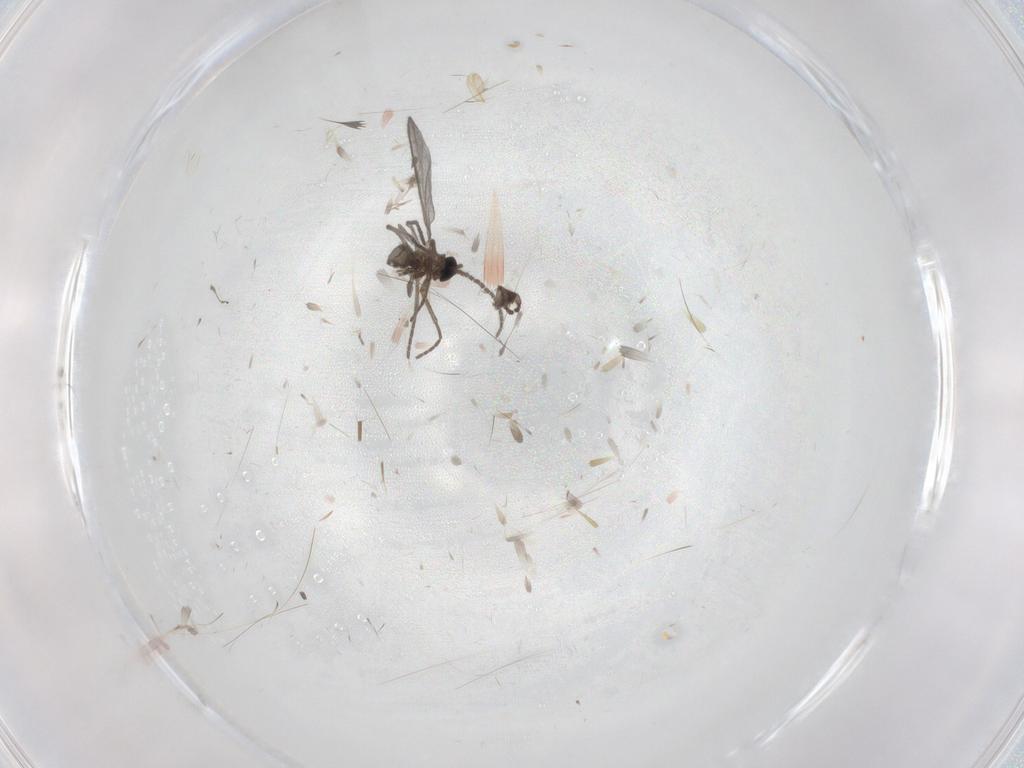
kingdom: Animalia
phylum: Arthropoda
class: Insecta
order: Diptera
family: Sciaridae
